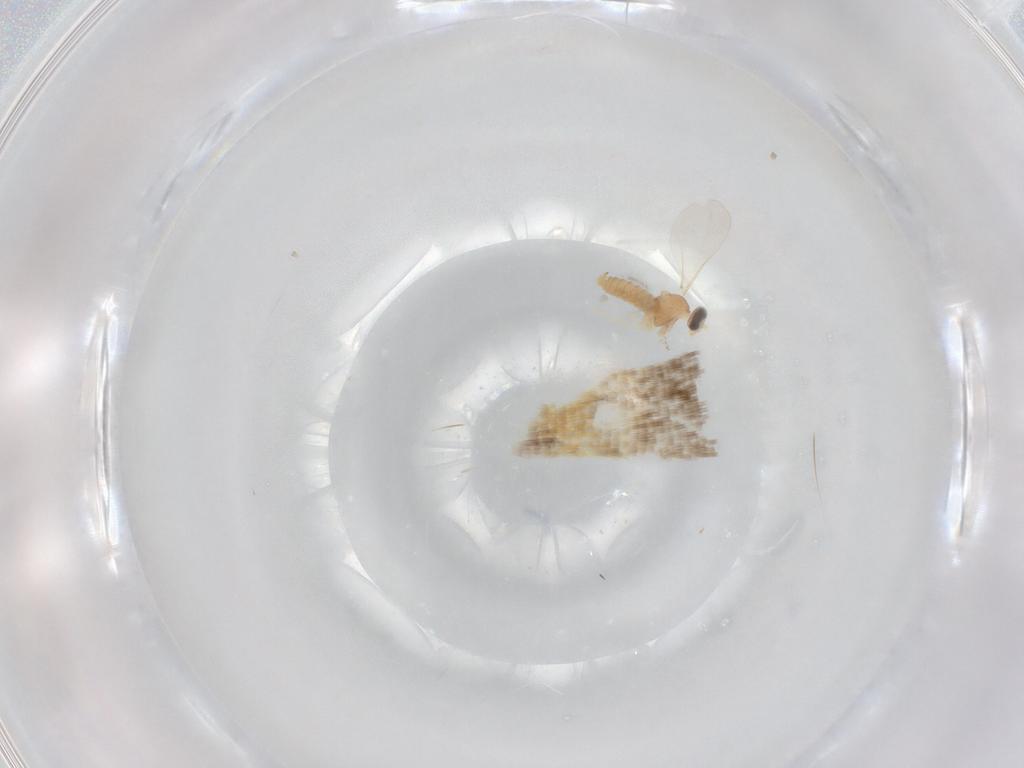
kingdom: Animalia
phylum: Arthropoda
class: Insecta
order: Diptera
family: Cecidomyiidae
